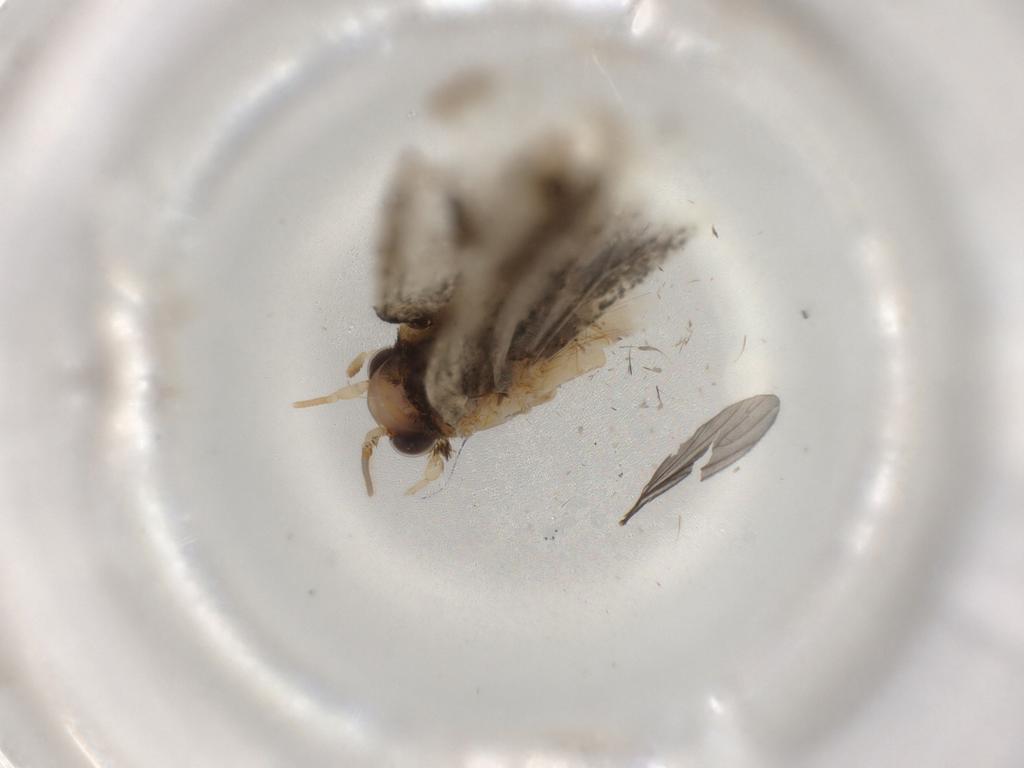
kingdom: Animalia
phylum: Arthropoda
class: Insecta
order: Lepidoptera
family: Tineidae
